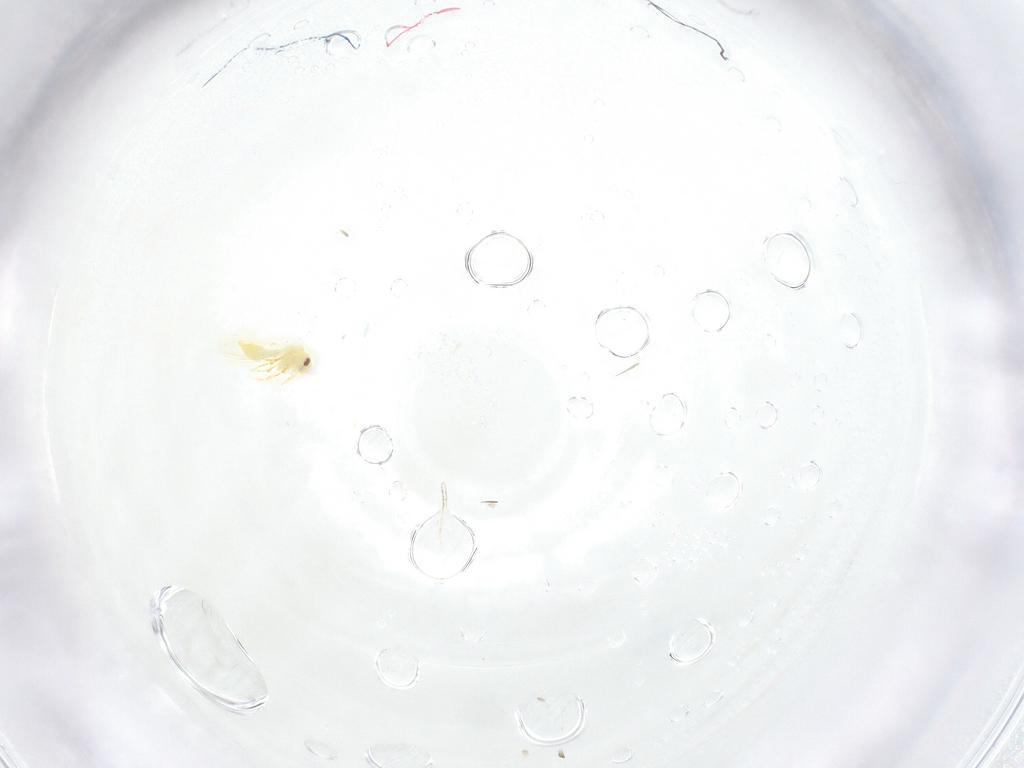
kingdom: Animalia
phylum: Arthropoda
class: Insecta
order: Hemiptera
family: Aleyrodidae
